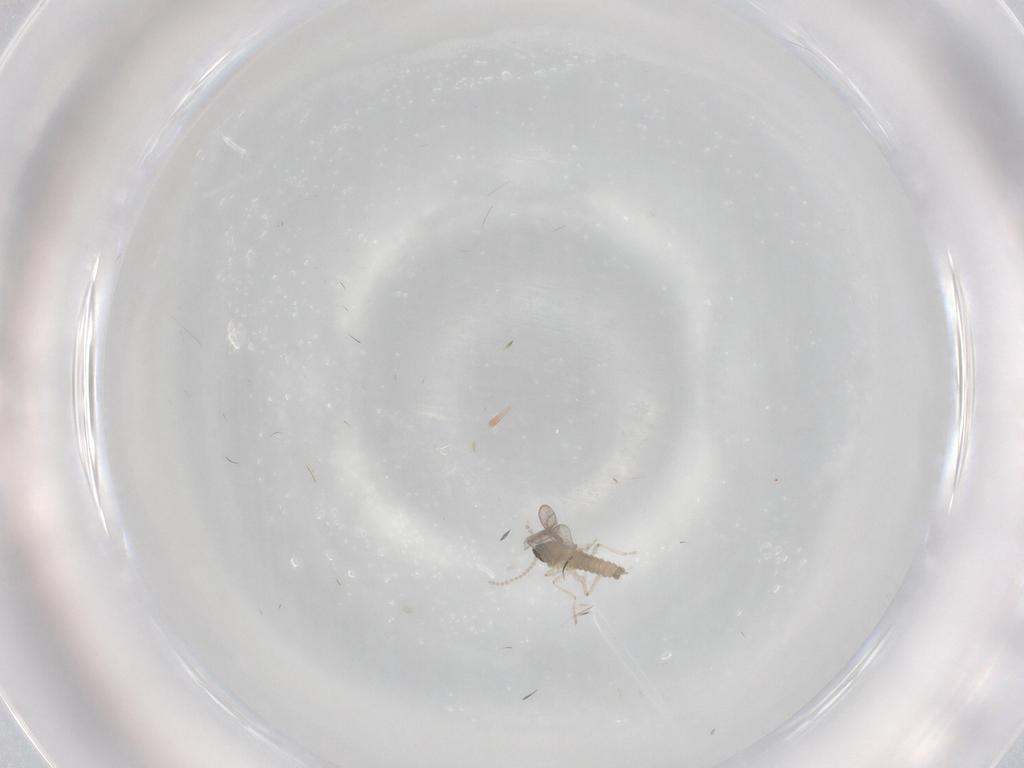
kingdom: Animalia
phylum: Arthropoda
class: Insecta
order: Diptera
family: Cecidomyiidae
